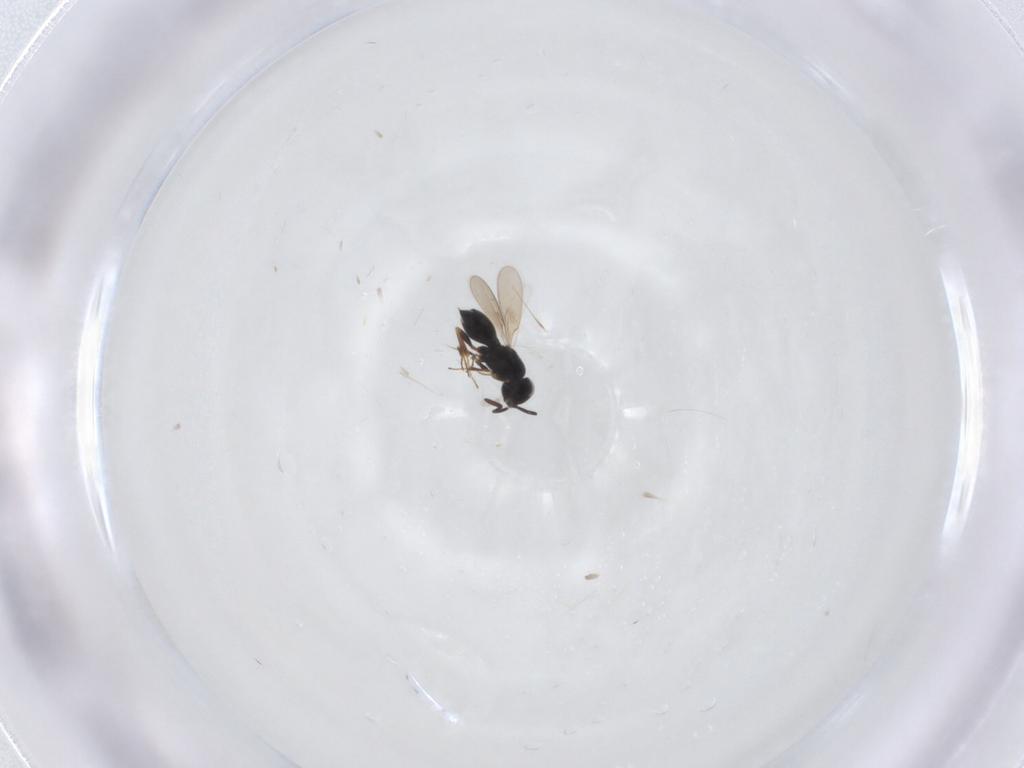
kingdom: Animalia
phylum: Arthropoda
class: Insecta
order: Hymenoptera
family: Scelionidae
